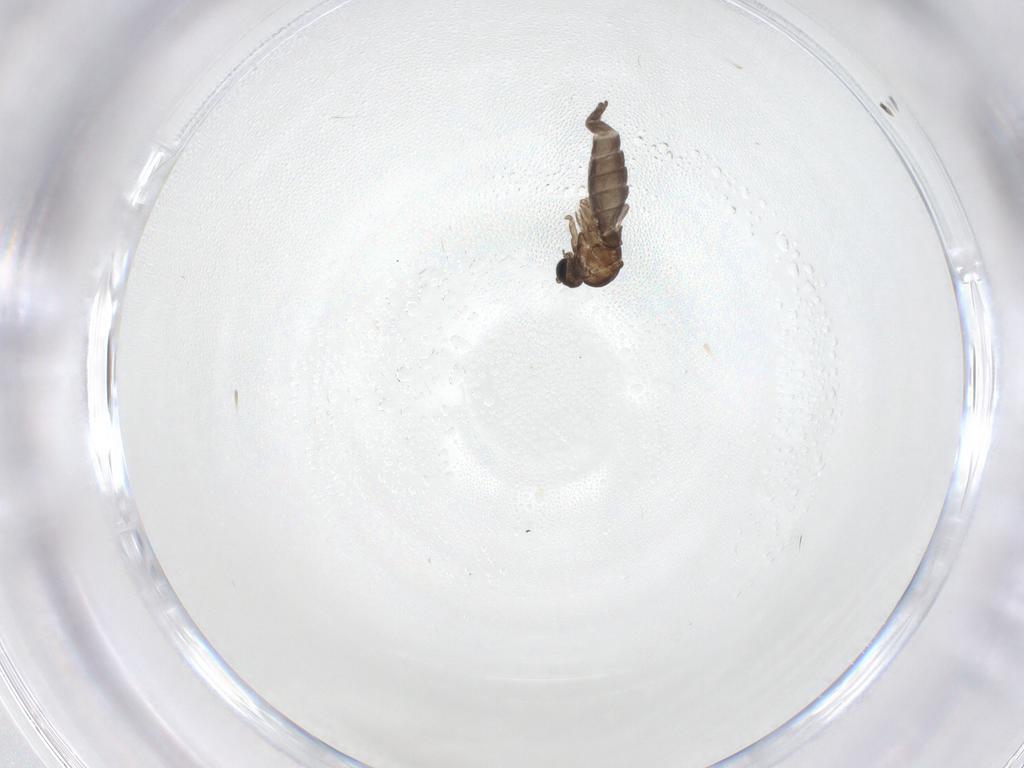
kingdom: Animalia
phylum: Arthropoda
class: Insecta
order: Diptera
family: Sciaridae
